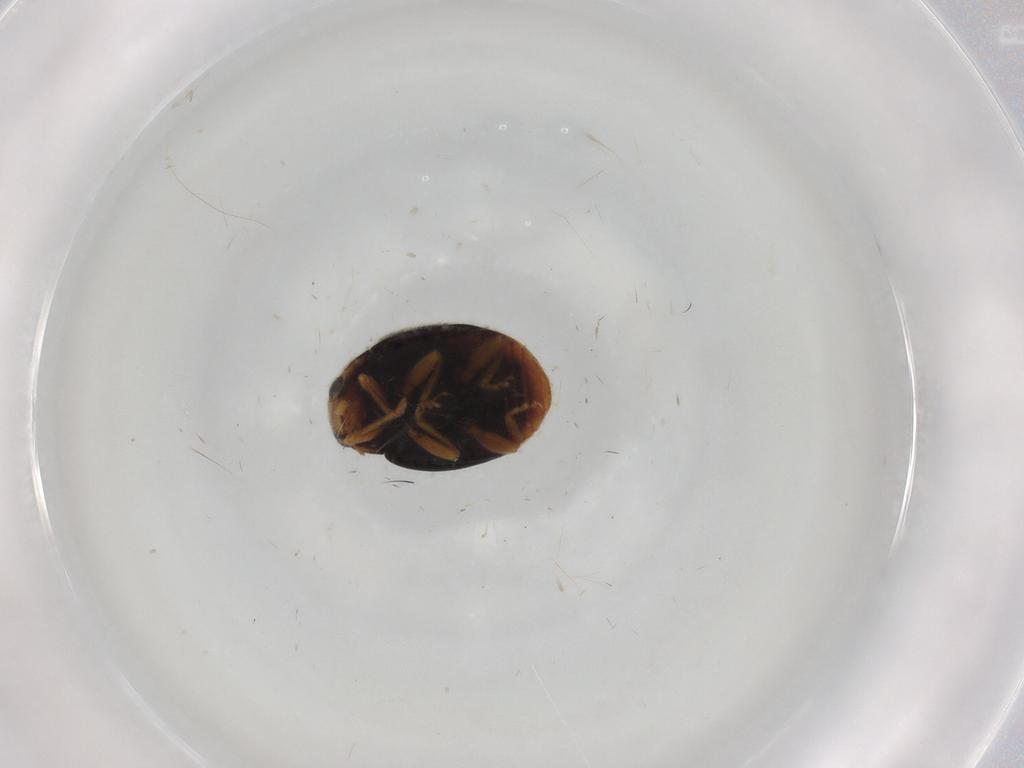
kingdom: Animalia
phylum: Arthropoda
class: Insecta
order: Coleoptera
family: Coccinellidae
